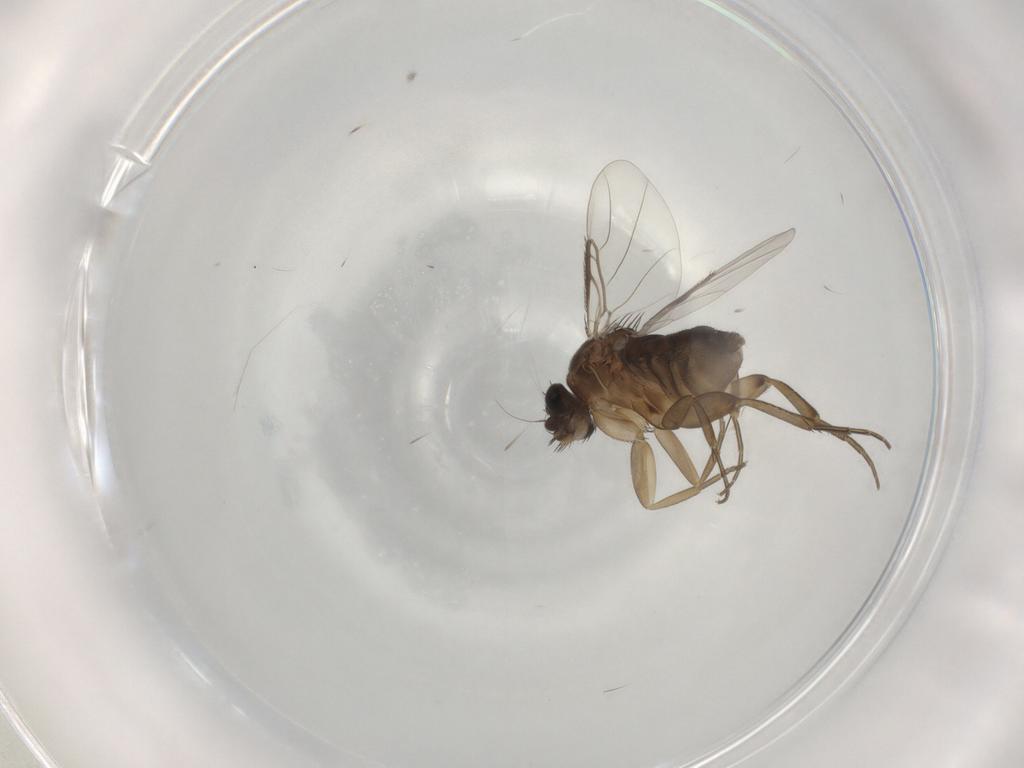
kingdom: Animalia
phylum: Arthropoda
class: Insecta
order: Diptera
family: Phoridae
